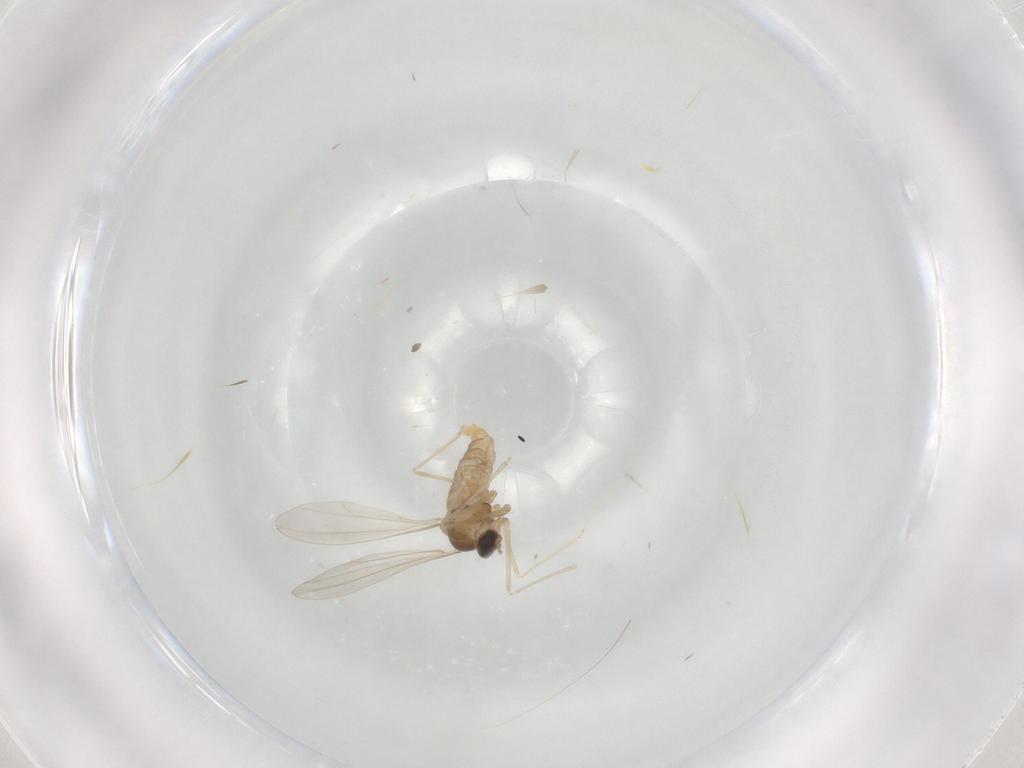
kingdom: Animalia
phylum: Arthropoda
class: Insecta
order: Diptera
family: Cecidomyiidae
